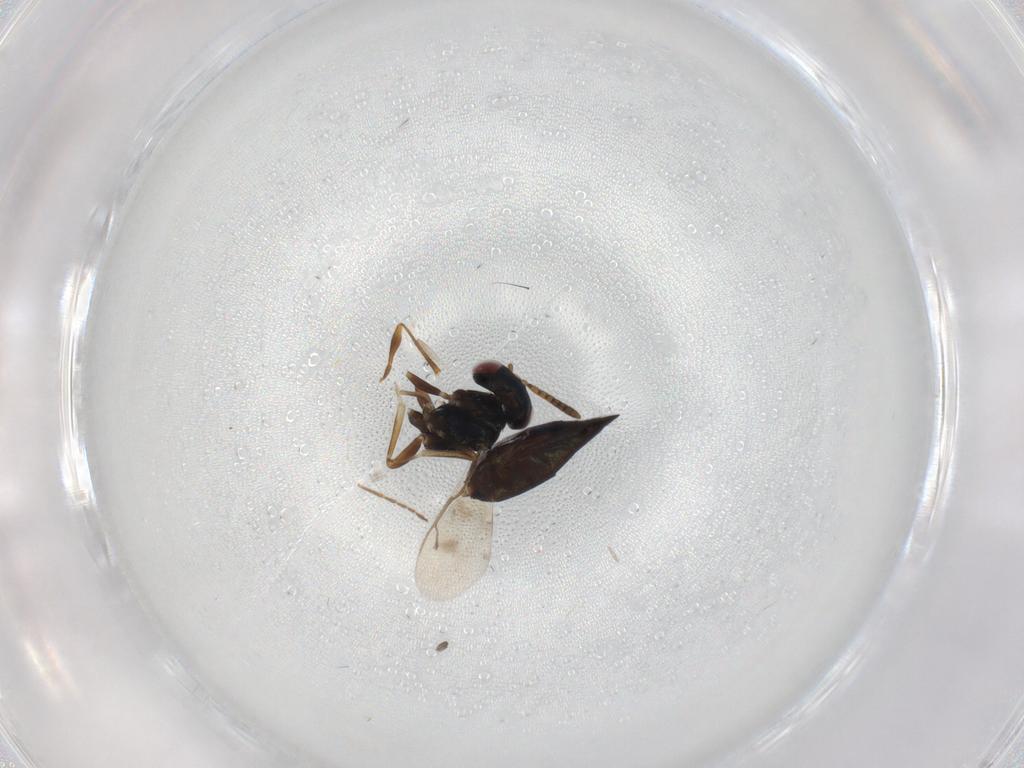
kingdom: Animalia
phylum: Arthropoda
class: Insecta
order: Hymenoptera
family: Pteromalidae
